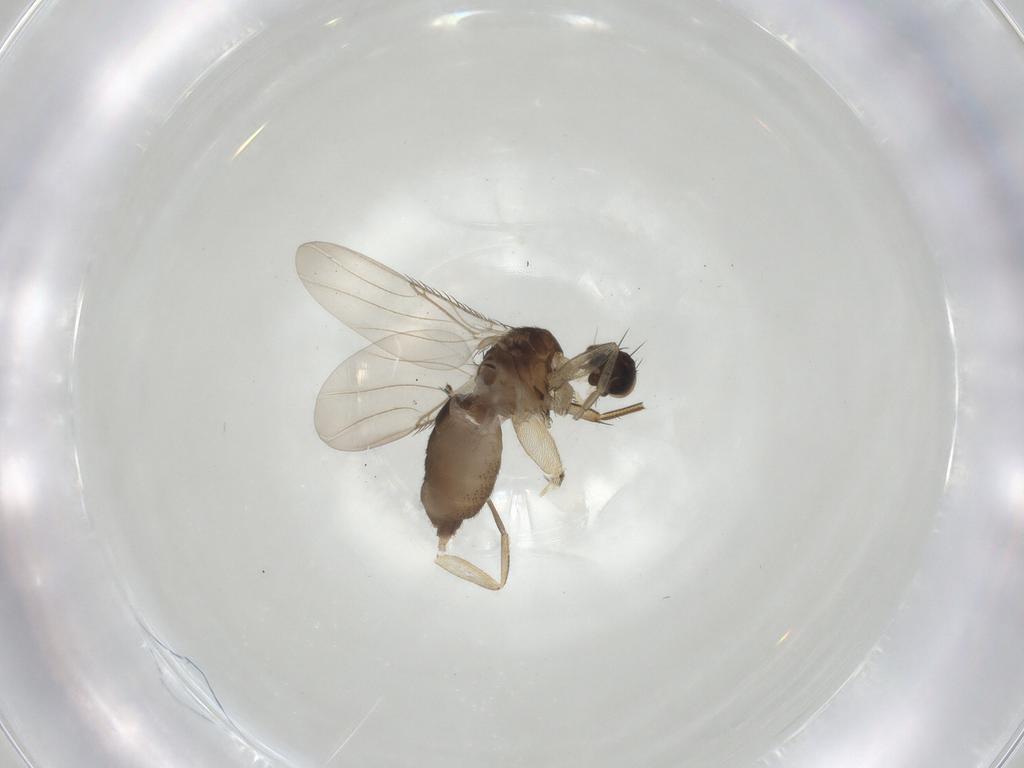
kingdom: Animalia
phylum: Arthropoda
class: Insecta
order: Diptera
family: Phoridae
